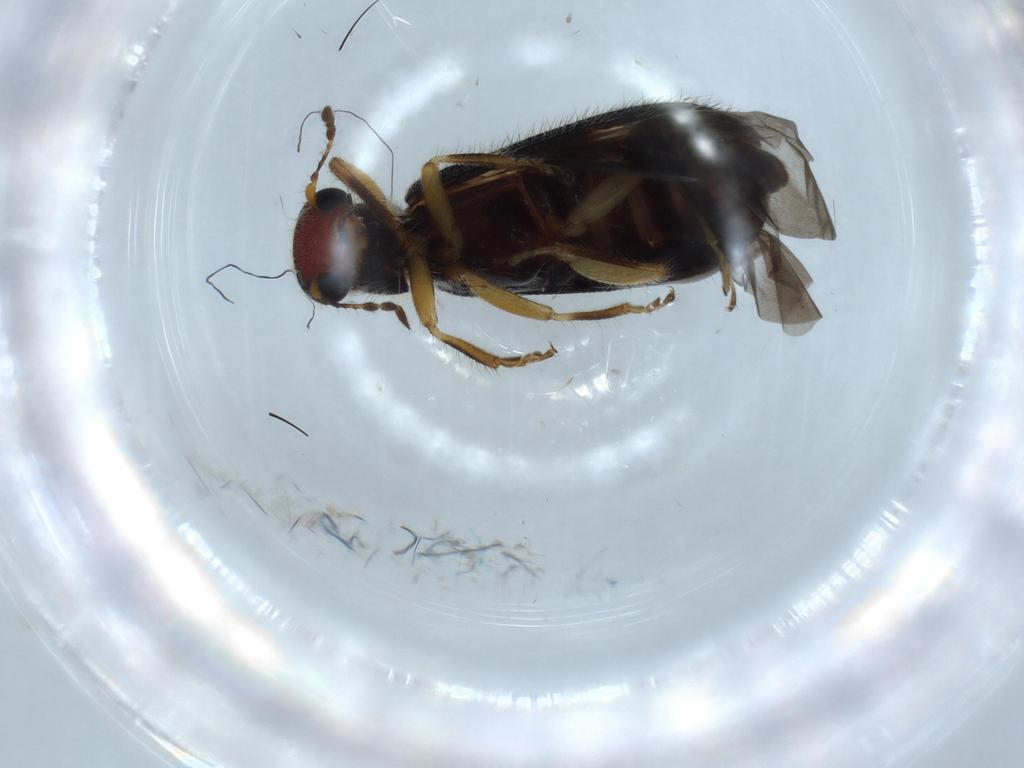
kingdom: Animalia
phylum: Arthropoda
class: Insecta
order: Coleoptera
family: Cleridae
